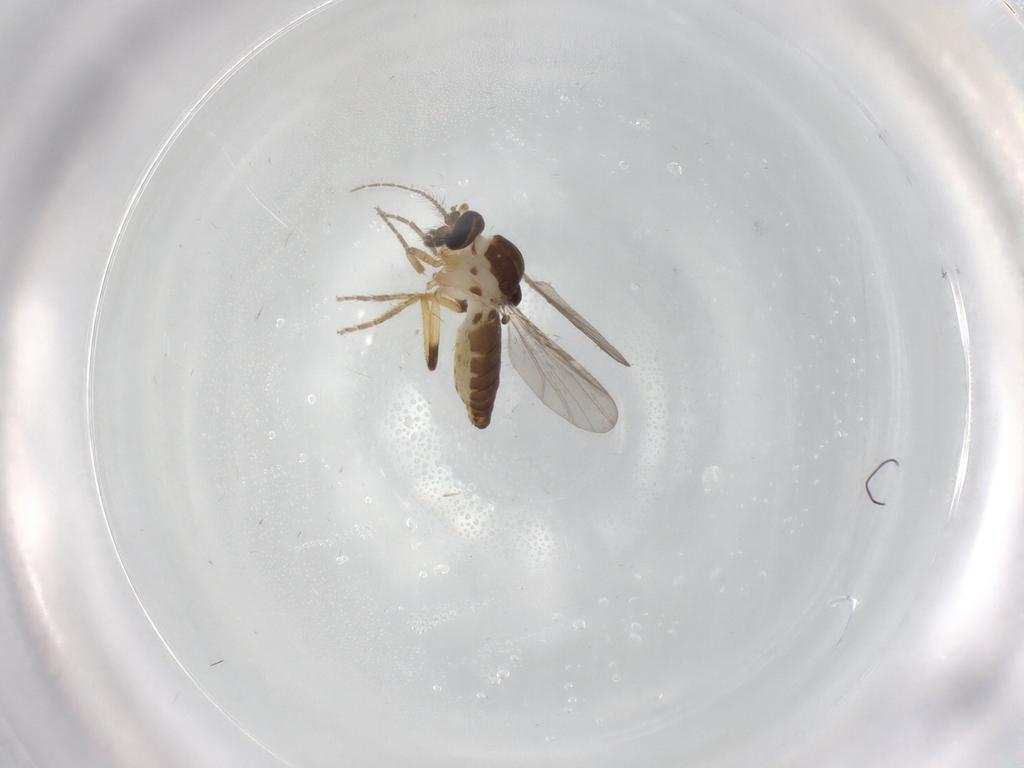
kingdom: Animalia
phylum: Arthropoda
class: Insecta
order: Diptera
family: Ceratopogonidae
